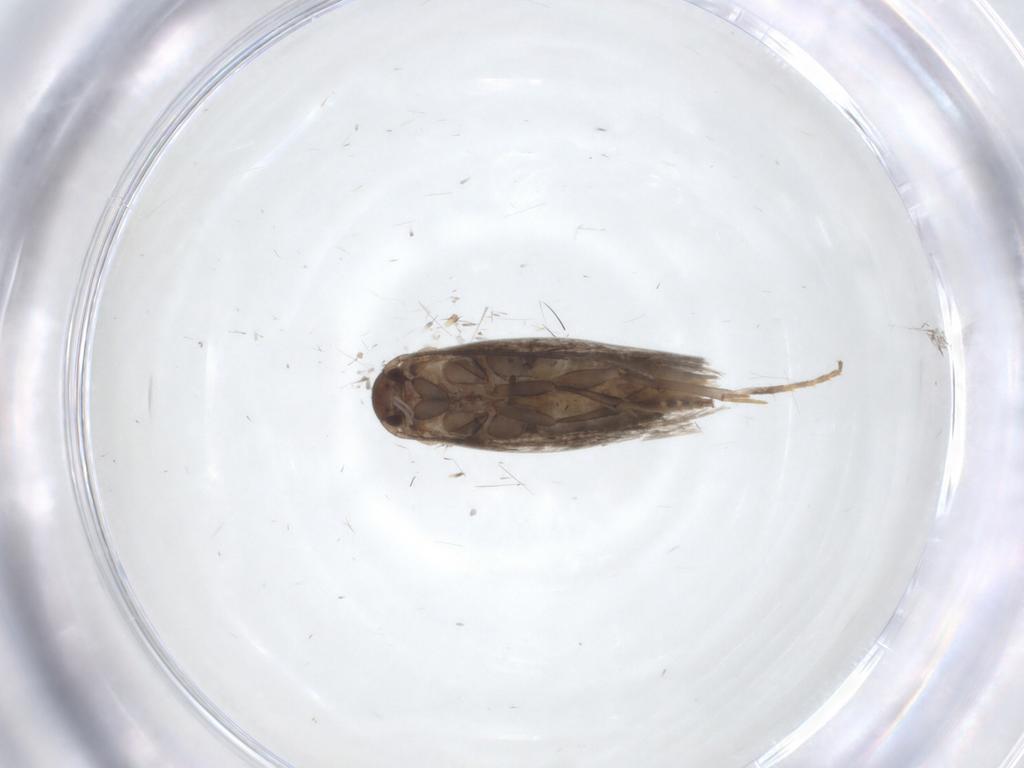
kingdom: Animalia
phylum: Arthropoda
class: Insecta
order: Lepidoptera
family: Elachistidae
